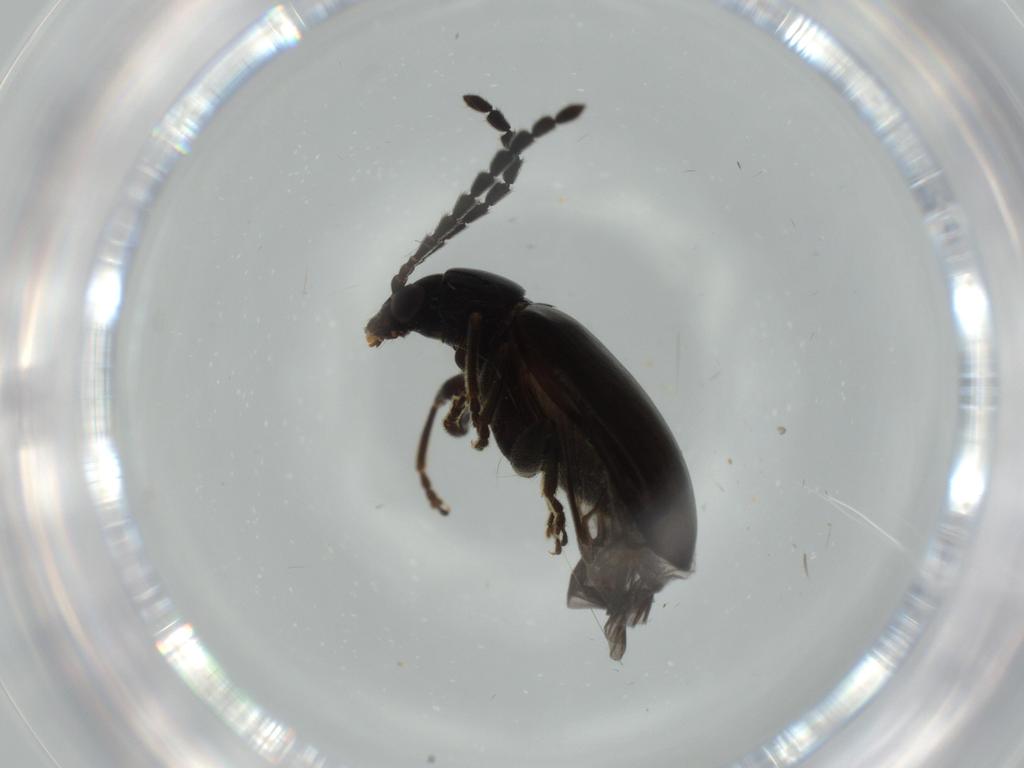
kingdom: Animalia
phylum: Arthropoda
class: Insecta
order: Coleoptera
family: Chrysomelidae
